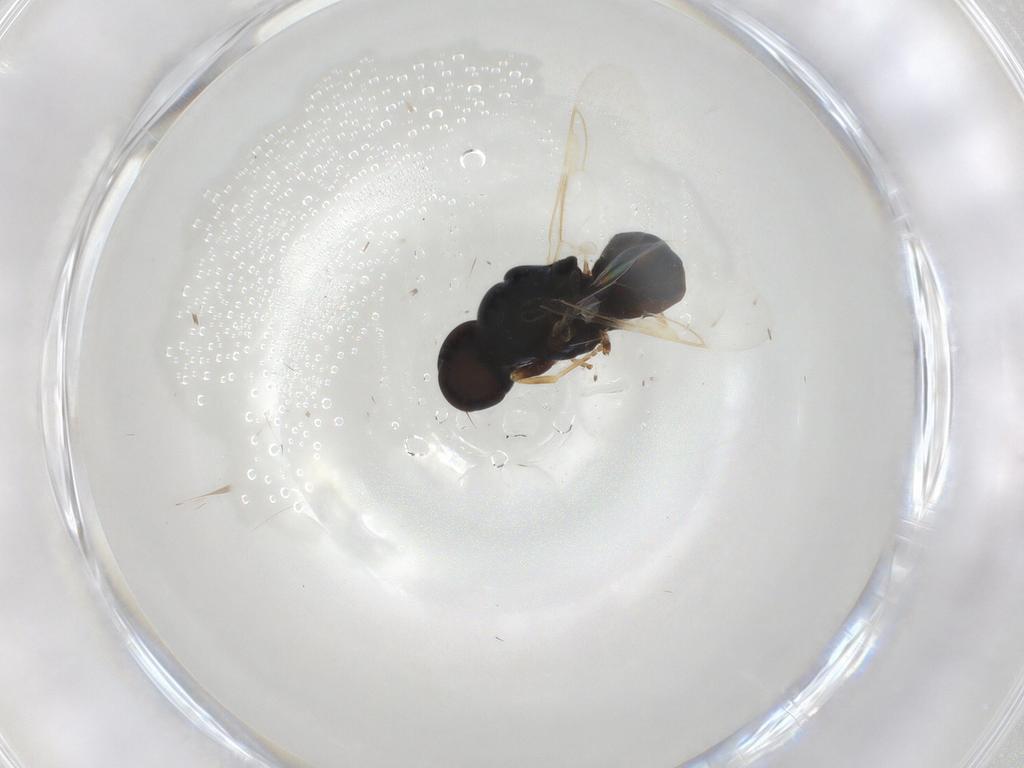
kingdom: Animalia
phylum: Arthropoda
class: Insecta
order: Diptera
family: Stratiomyidae
